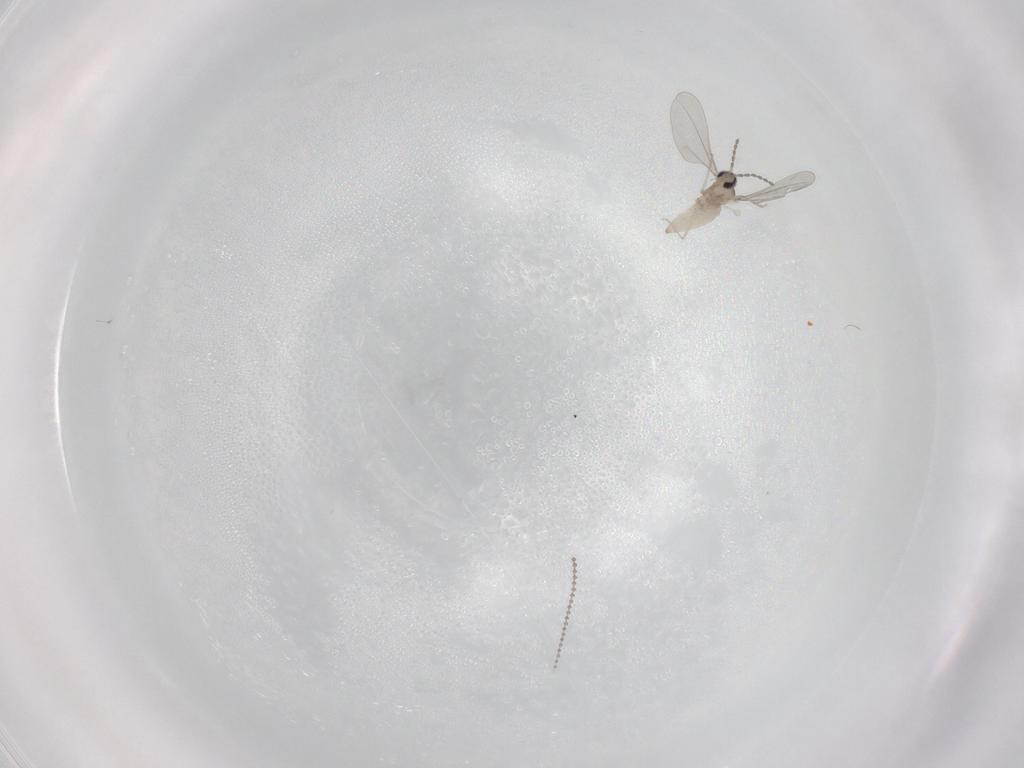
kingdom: Animalia
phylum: Arthropoda
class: Insecta
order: Diptera
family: Cecidomyiidae
